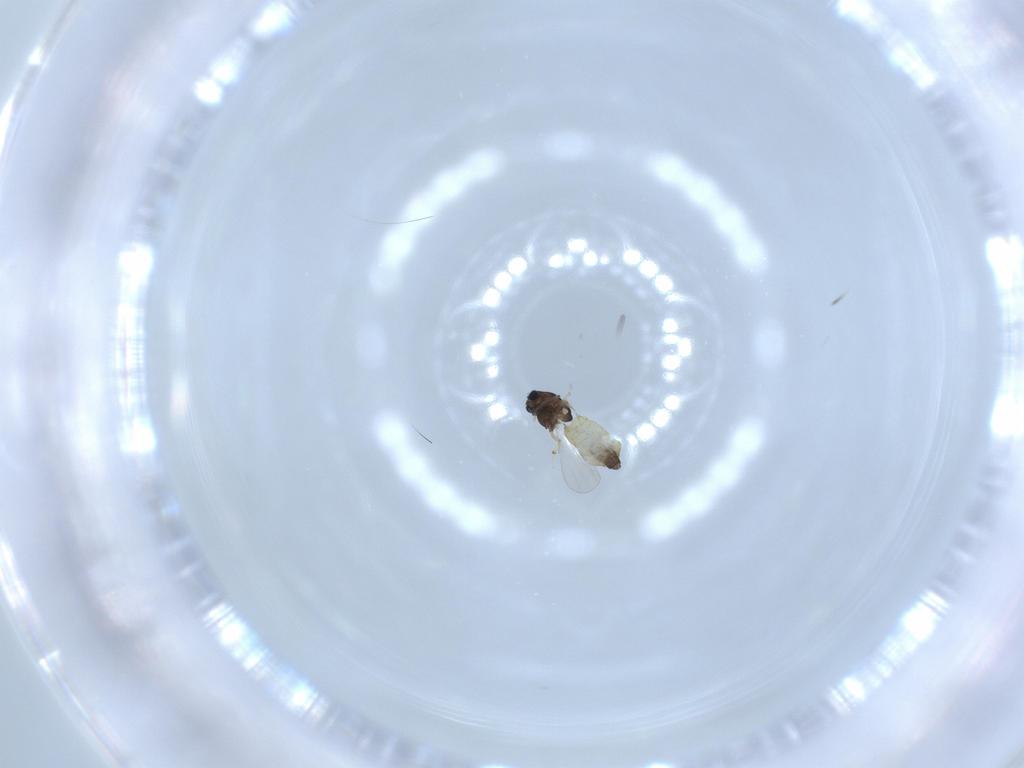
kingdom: Animalia
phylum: Arthropoda
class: Insecta
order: Diptera
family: Chironomidae
